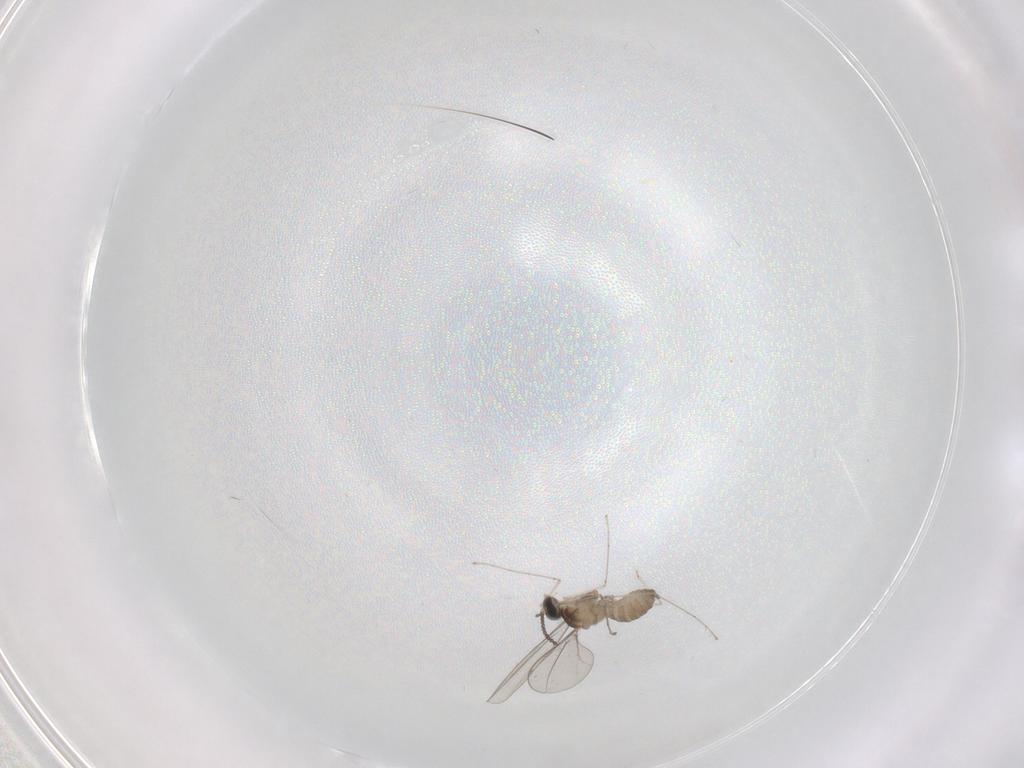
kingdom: Animalia
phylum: Arthropoda
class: Insecta
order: Diptera
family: Cecidomyiidae
